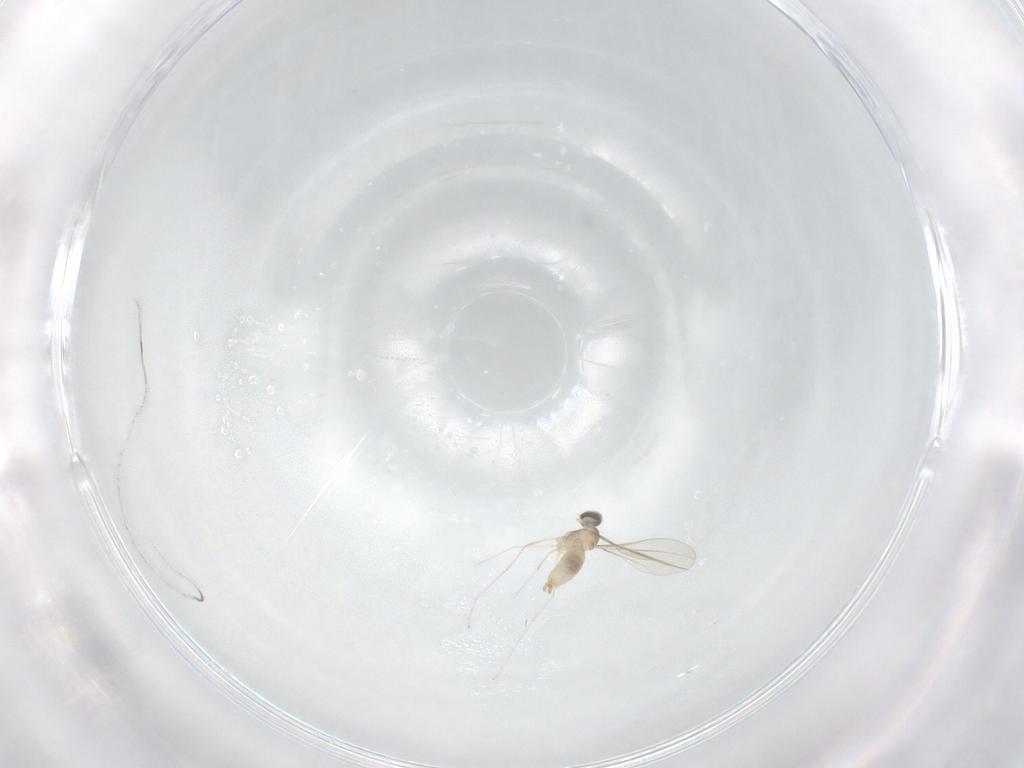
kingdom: Animalia
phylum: Arthropoda
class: Insecta
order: Diptera
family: Cecidomyiidae
